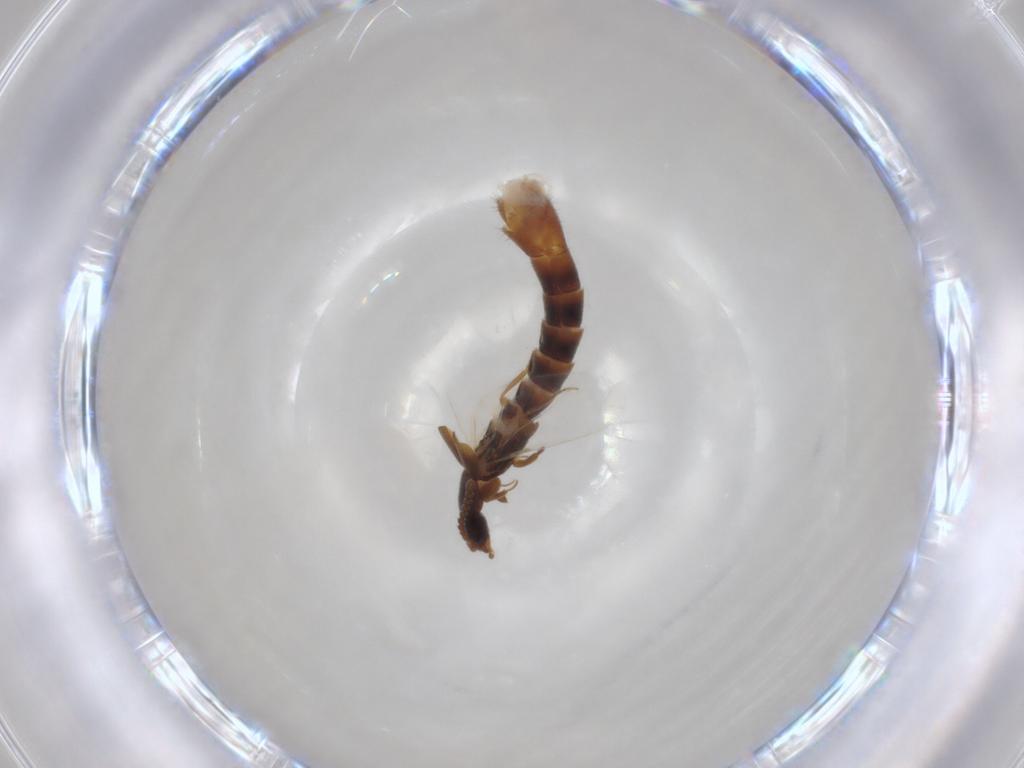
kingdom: Animalia
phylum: Arthropoda
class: Insecta
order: Coleoptera
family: Staphylinidae
